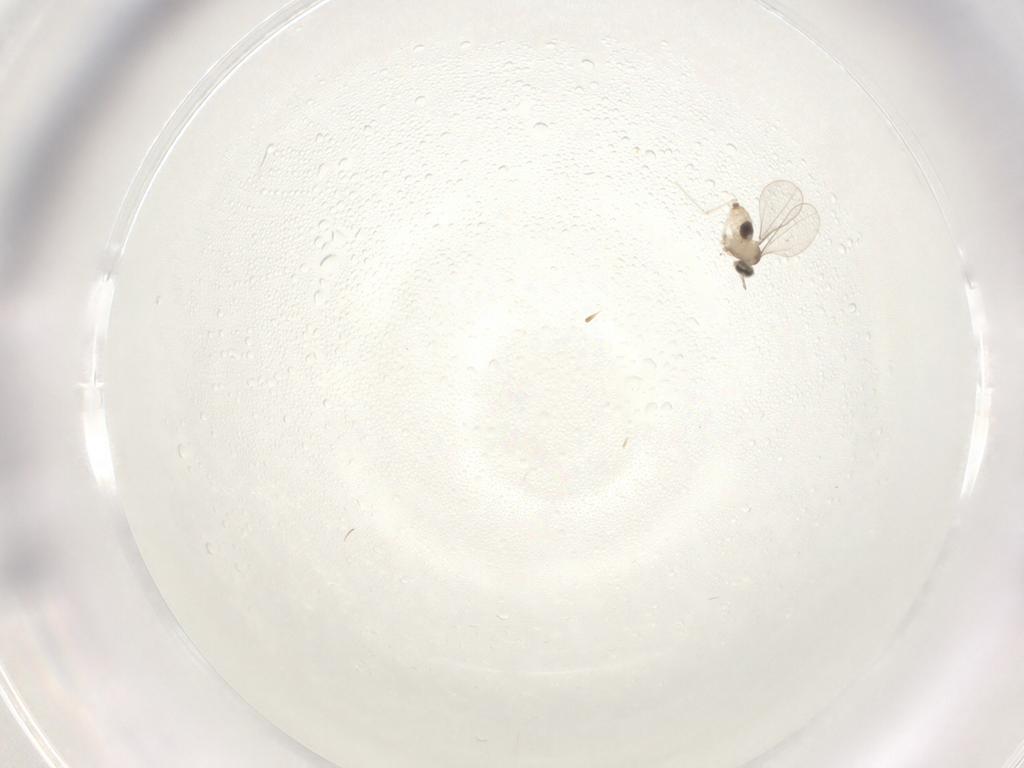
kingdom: Animalia
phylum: Arthropoda
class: Insecta
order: Diptera
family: Cecidomyiidae
